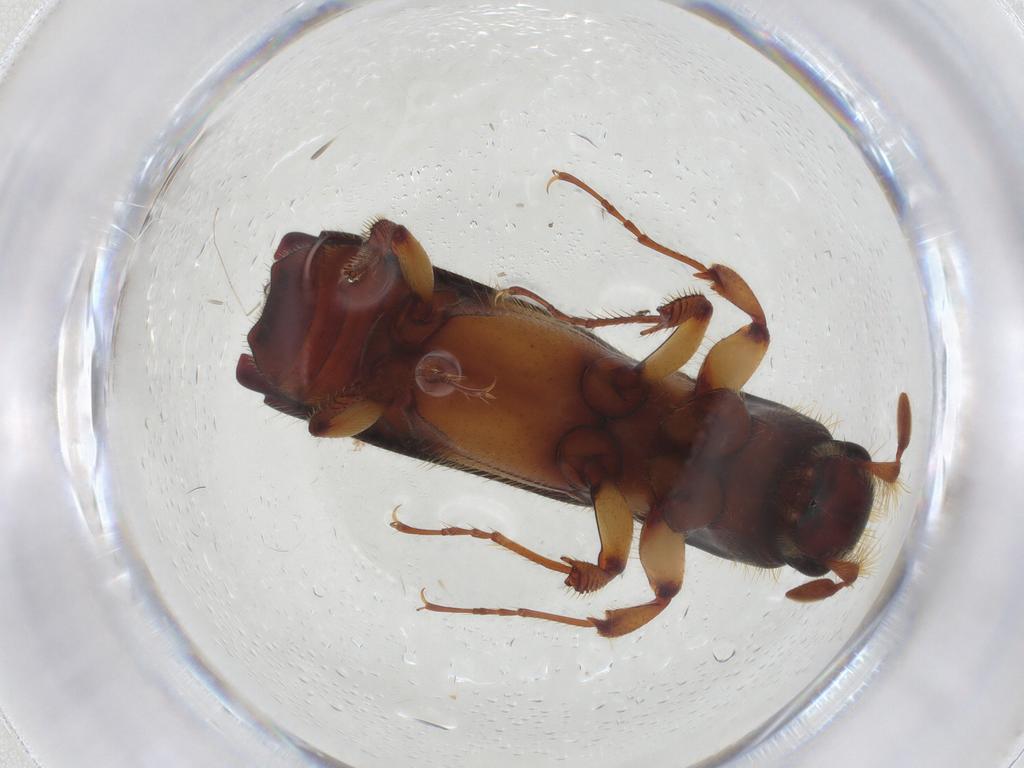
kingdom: Animalia
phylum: Arthropoda
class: Insecta
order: Coleoptera
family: Curculionidae
